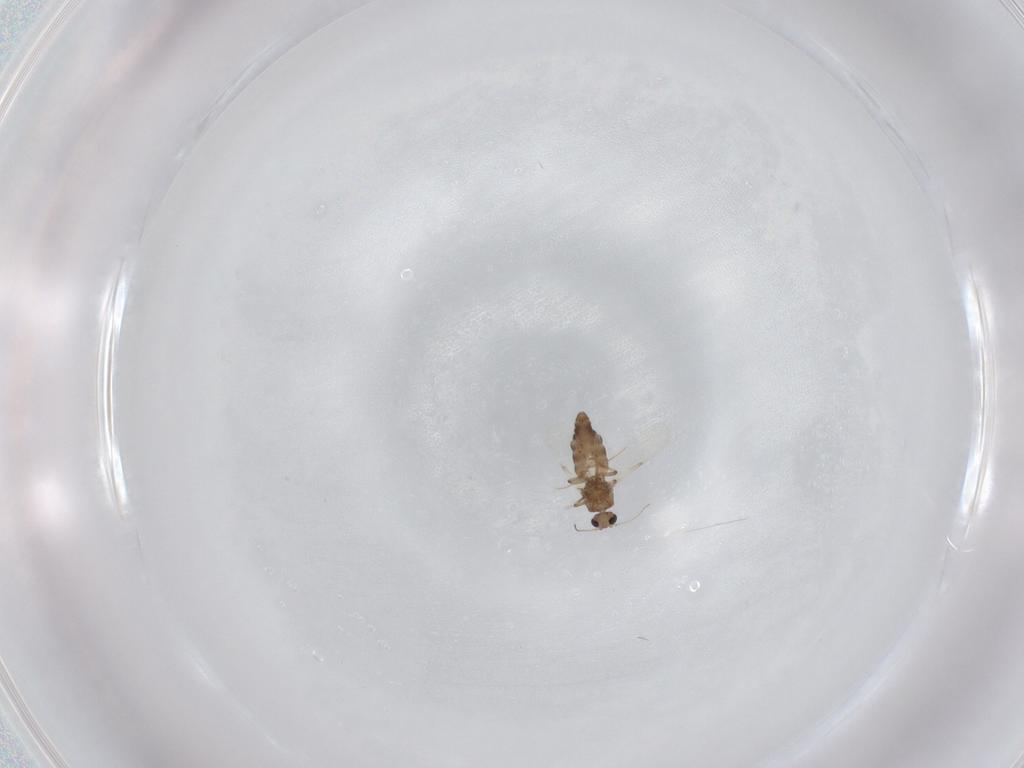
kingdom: Animalia
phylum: Arthropoda
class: Insecta
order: Diptera
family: Ceratopogonidae
